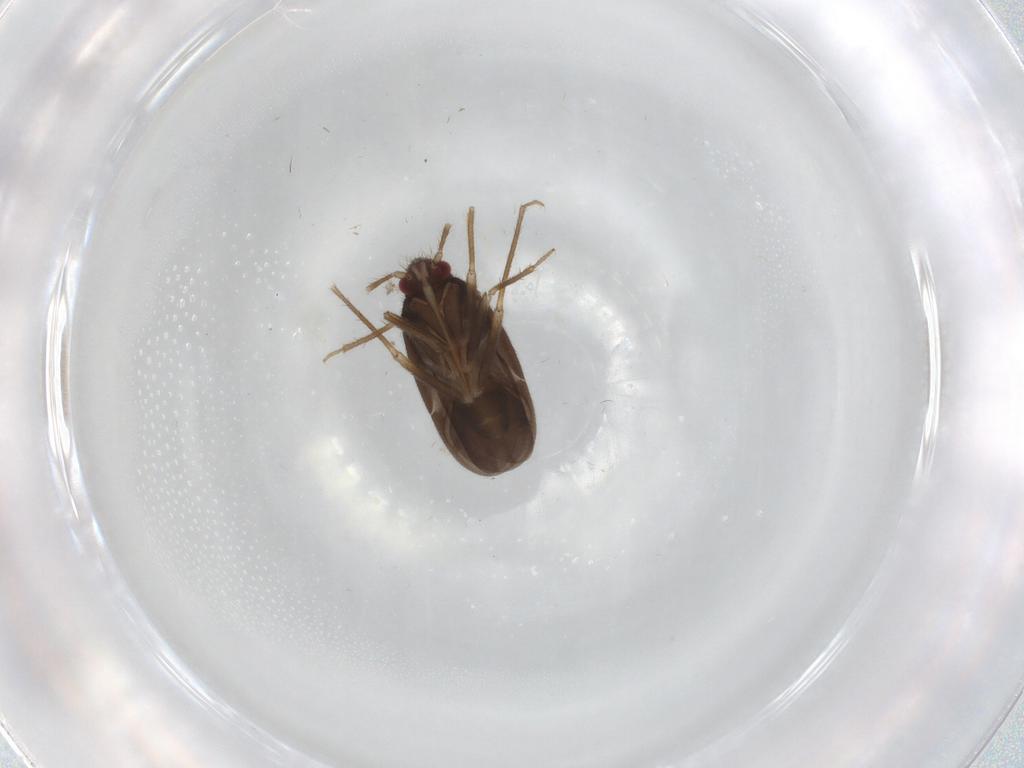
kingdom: Animalia
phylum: Arthropoda
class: Insecta
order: Hemiptera
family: Ceratocombidae
